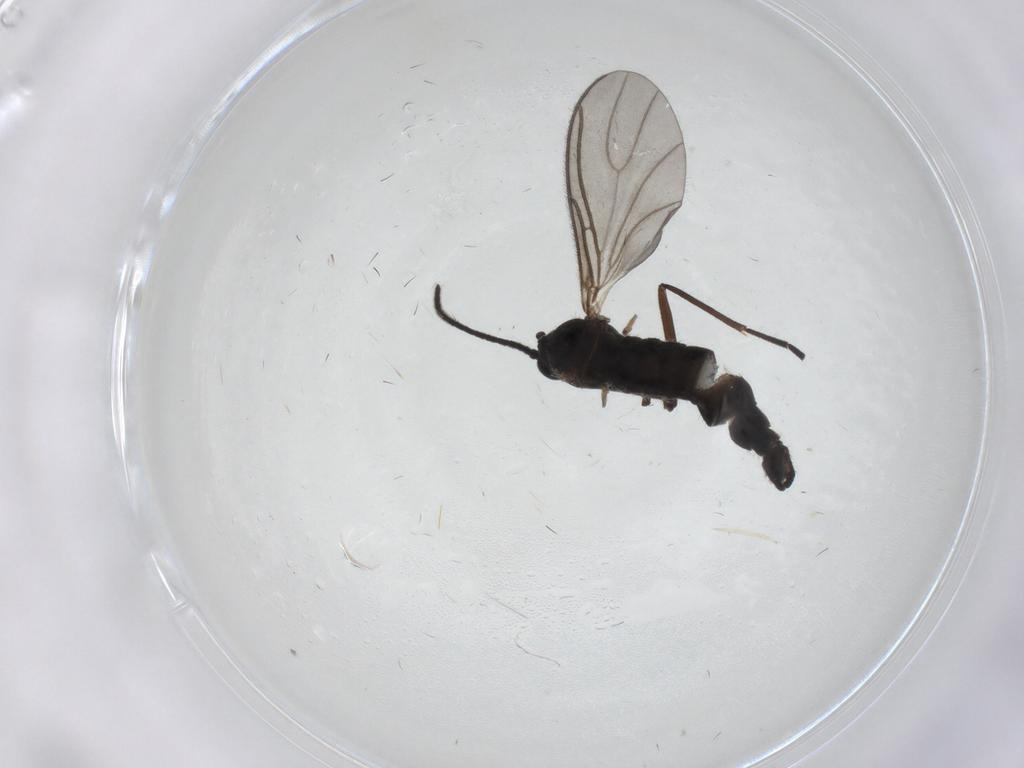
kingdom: Animalia
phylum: Arthropoda
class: Insecta
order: Diptera
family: Sciaridae
